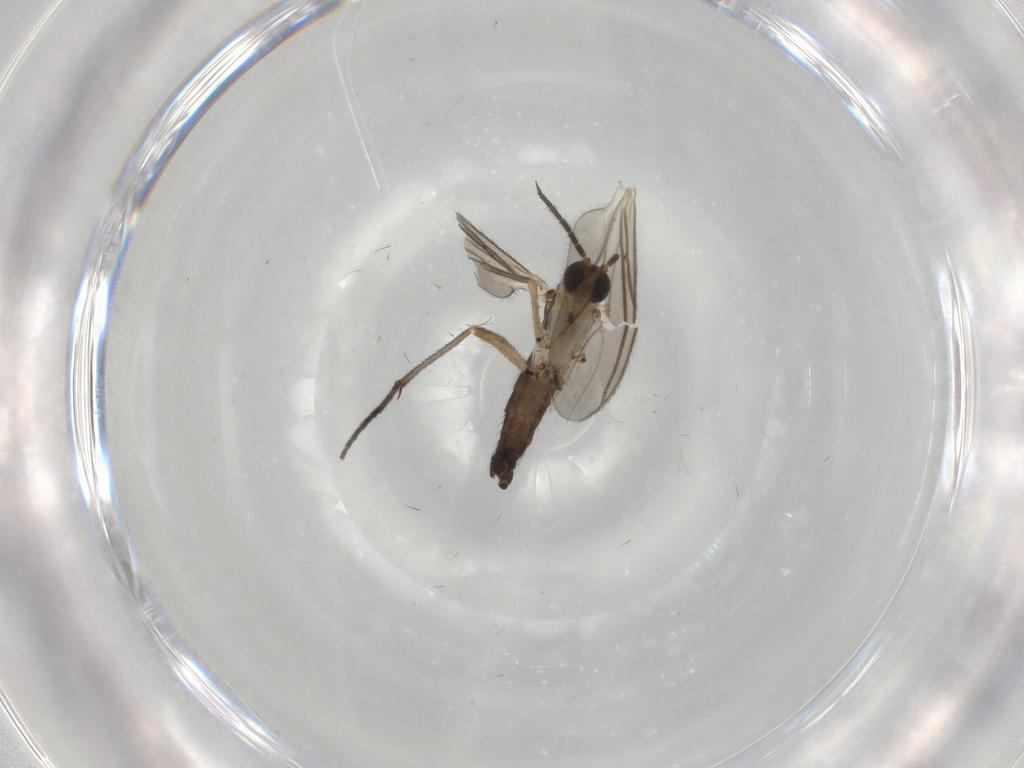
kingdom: Animalia
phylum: Arthropoda
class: Insecta
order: Diptera
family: Sciaridae
